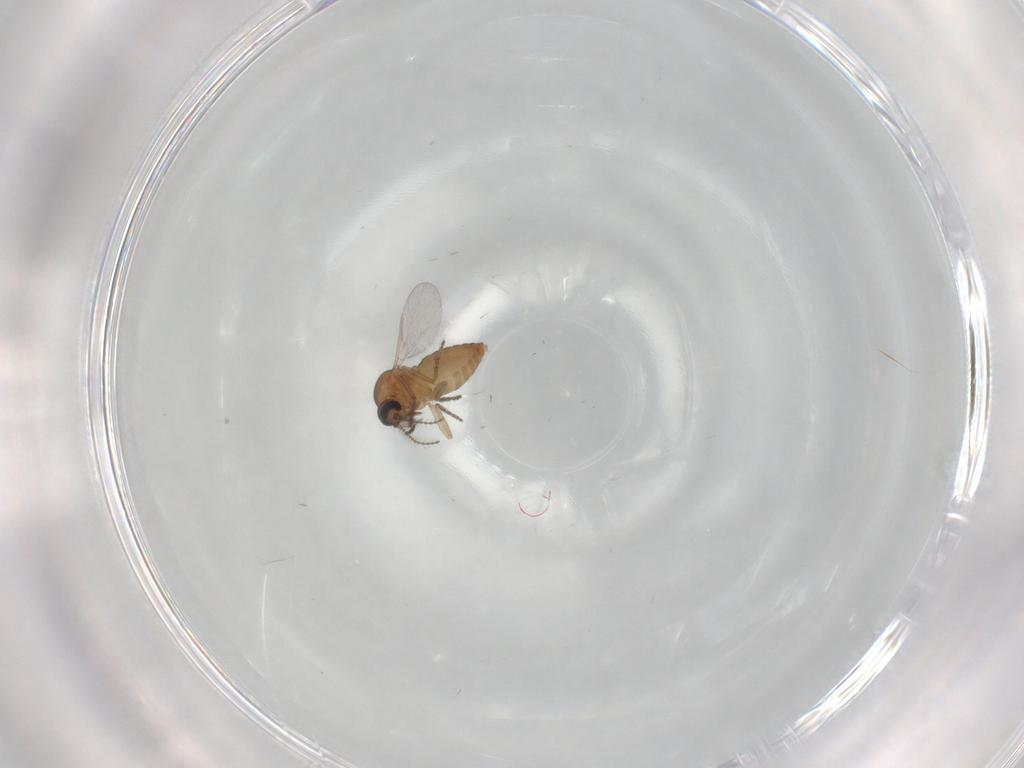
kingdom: Animalia
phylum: Arthropoda
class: Insecta
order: Diptera
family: Ceratopogonidae
